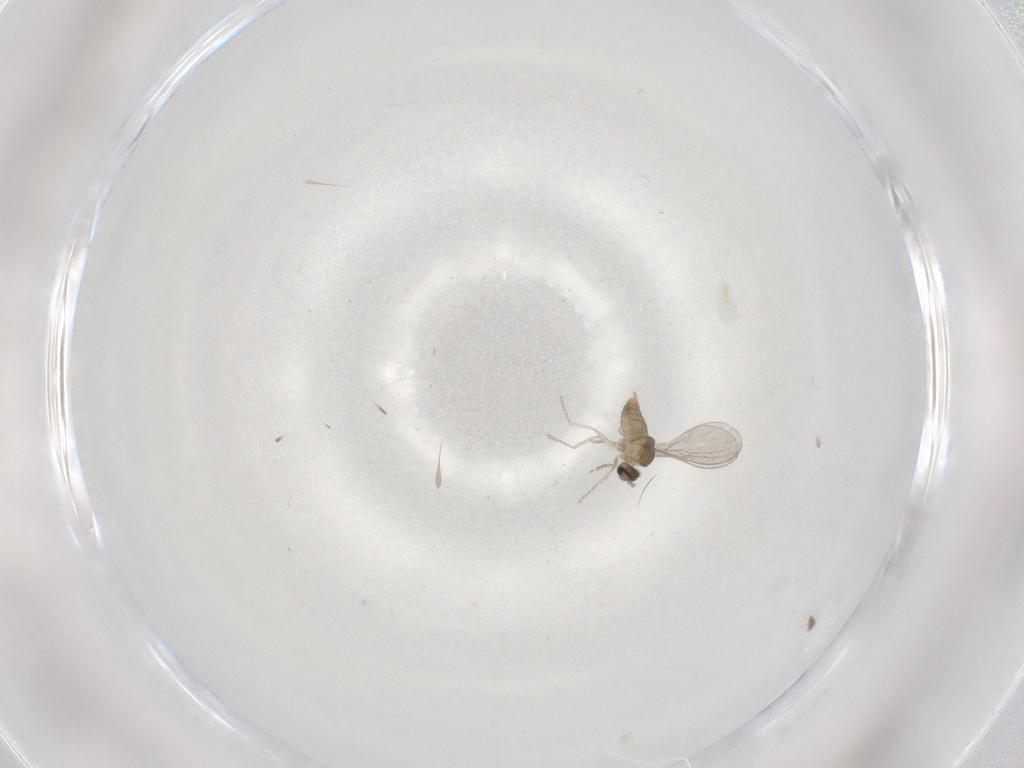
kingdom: Animalia
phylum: Arthropoda
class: Insecta
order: Diptera
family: Cecidomyiidae
